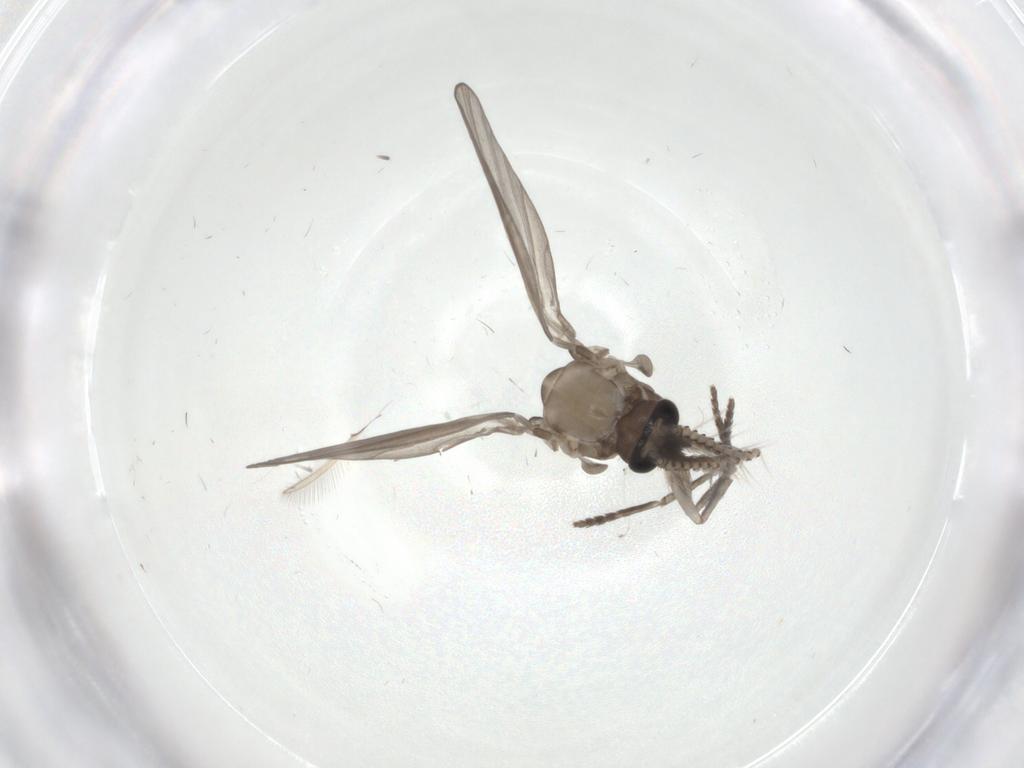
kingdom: Animalia
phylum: Arthropoda
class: Insecta
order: Diptera
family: Psychodidae
